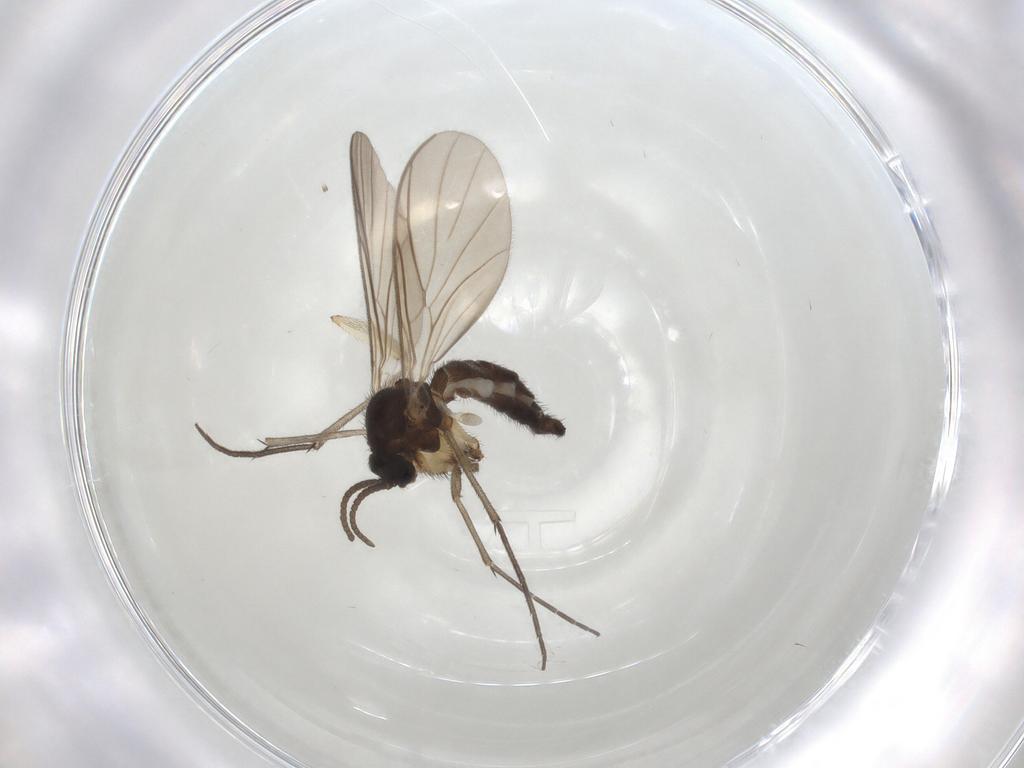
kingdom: Animalia
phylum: Arthropoda
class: Insecta
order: Diptera
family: Keroplatidae
